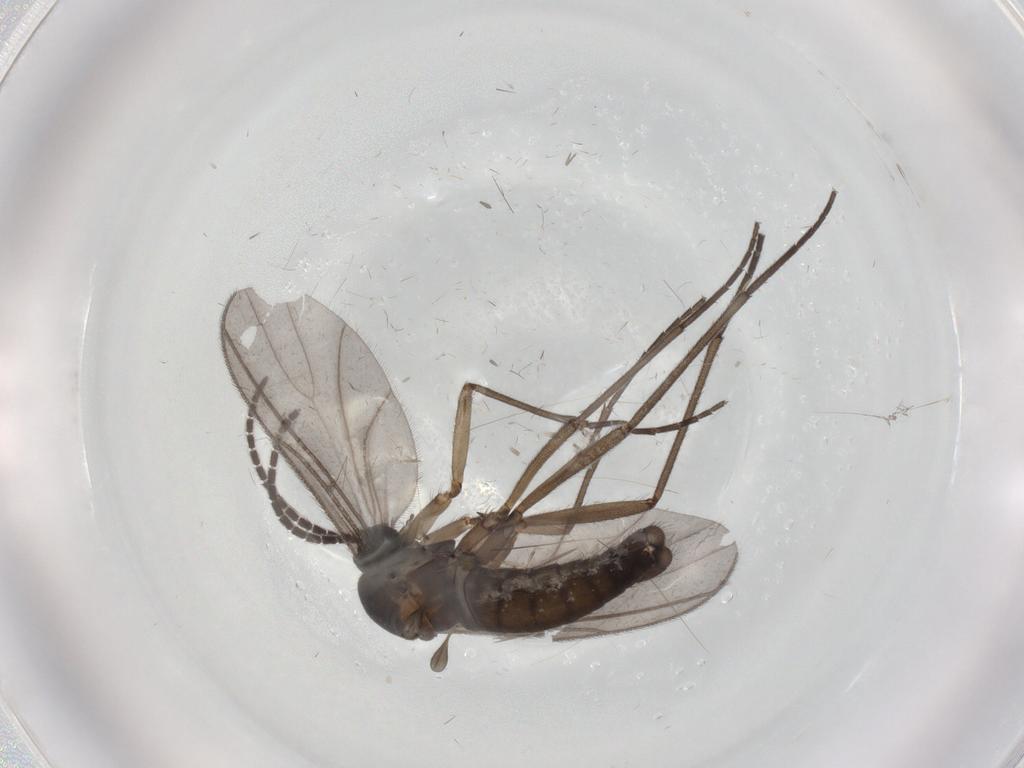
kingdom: Animalia
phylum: Arthropoda
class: Insecta
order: Diptera
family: Sciaridae
